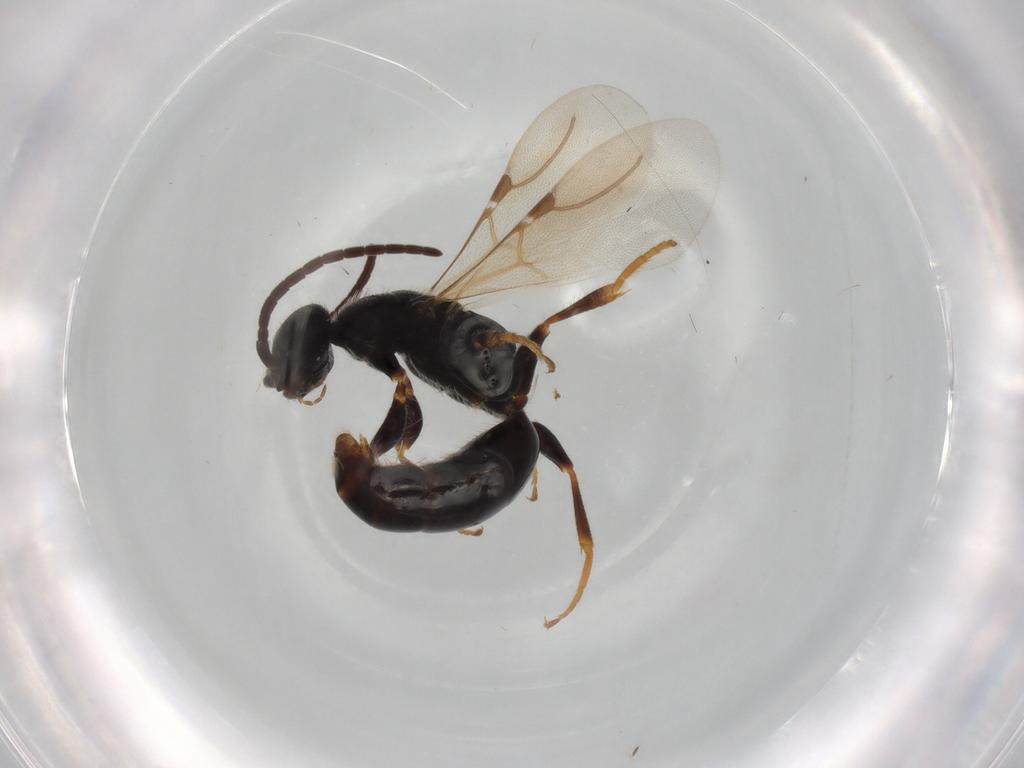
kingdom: Animalia
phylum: Arthropoda
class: Insecta
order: Hymenoptera
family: Bethylidae
